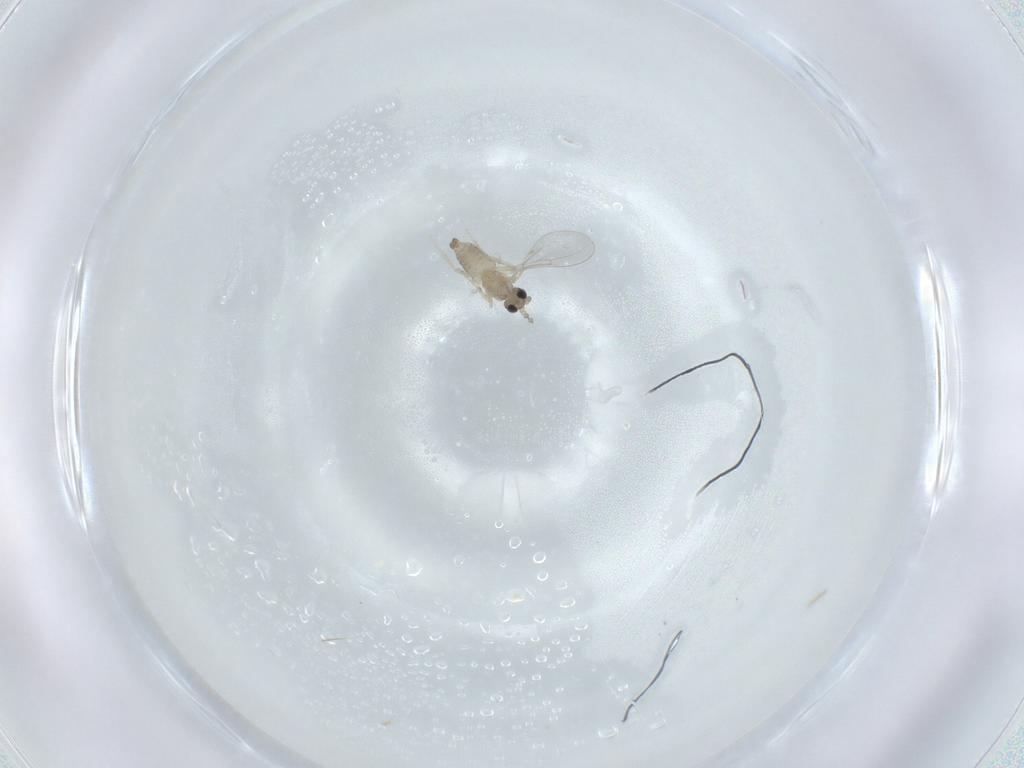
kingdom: Animalia
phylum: Arthropoda
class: Insecta
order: Diptera
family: Cecidomyiidae
